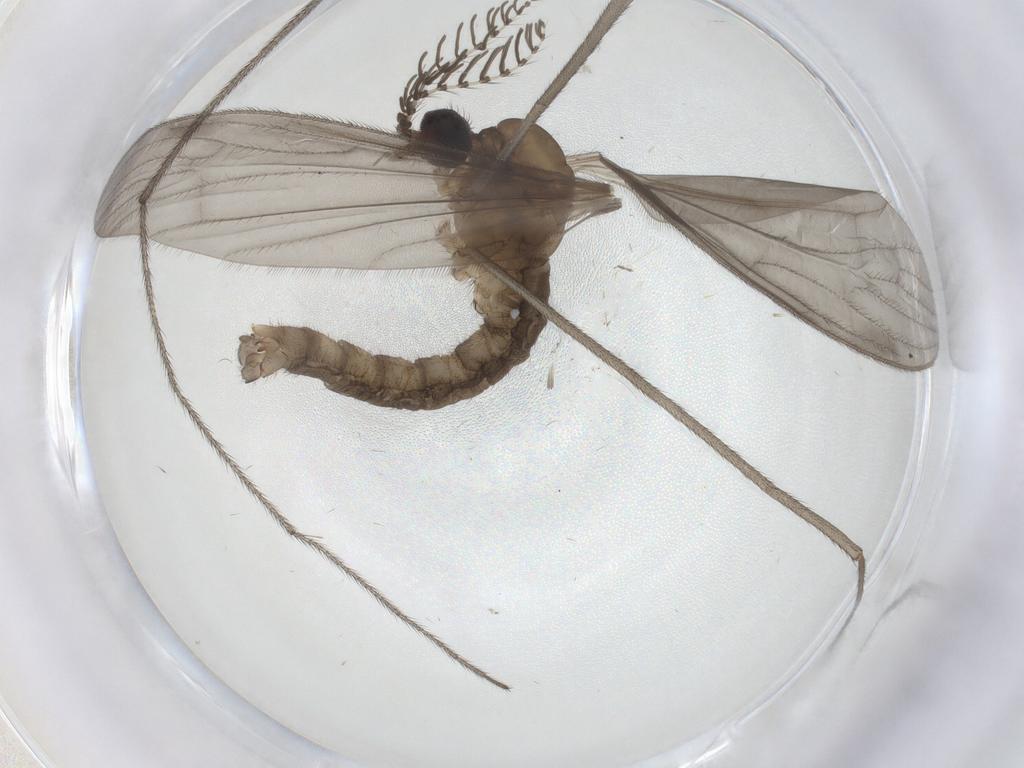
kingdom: Animalia
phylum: Arthropoda
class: Insecta
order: Diptera
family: Limoniidae
